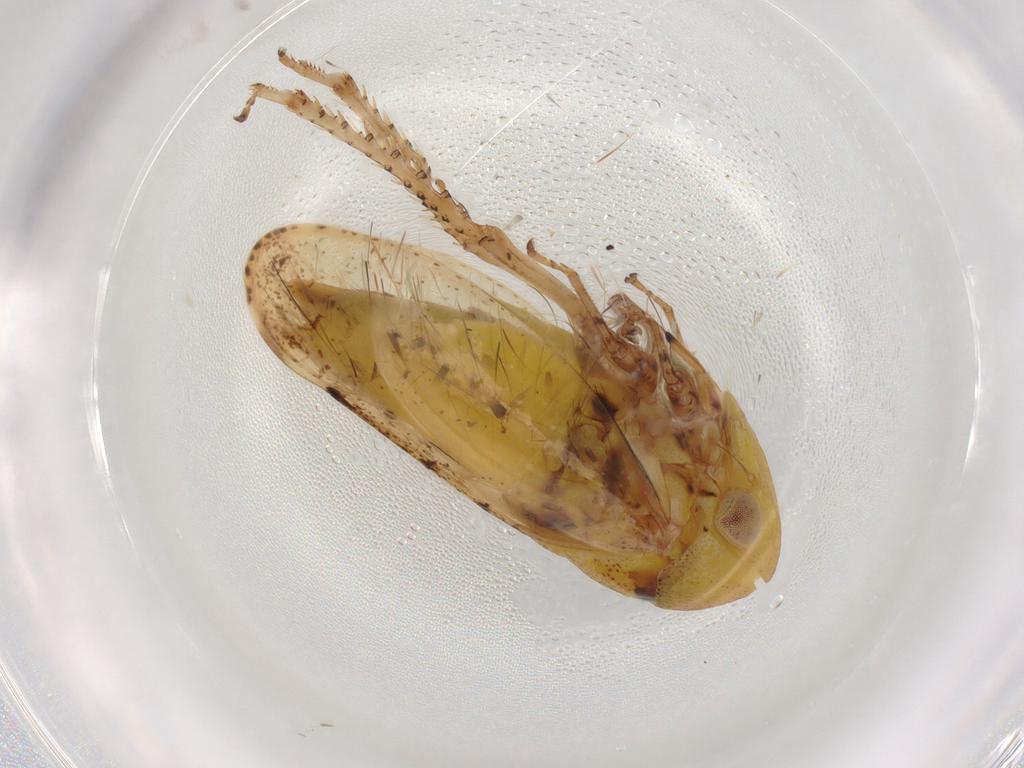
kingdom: Animalia
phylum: Arthropoda
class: Insecta
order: Hemiptera
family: Cicadellidae
